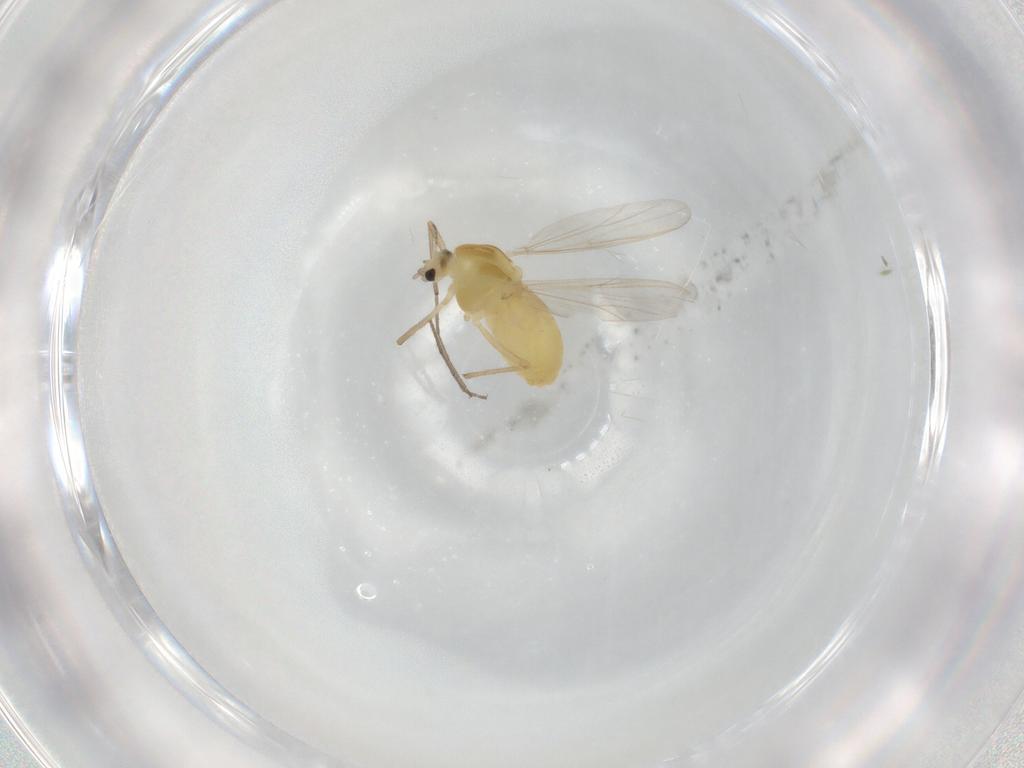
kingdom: Animalia
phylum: Arthropoda
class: Insecta
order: Diptera
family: Chironomidae
